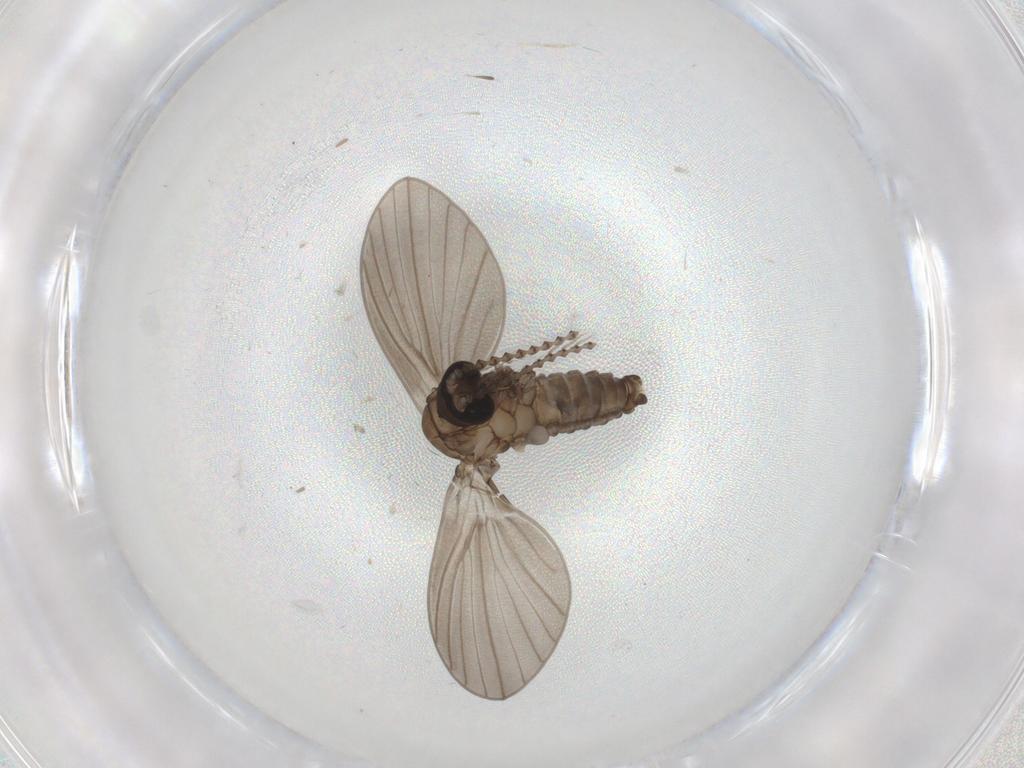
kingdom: Animalia
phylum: Arthropoda
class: Insecta
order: Diptera
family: Psychodidae
